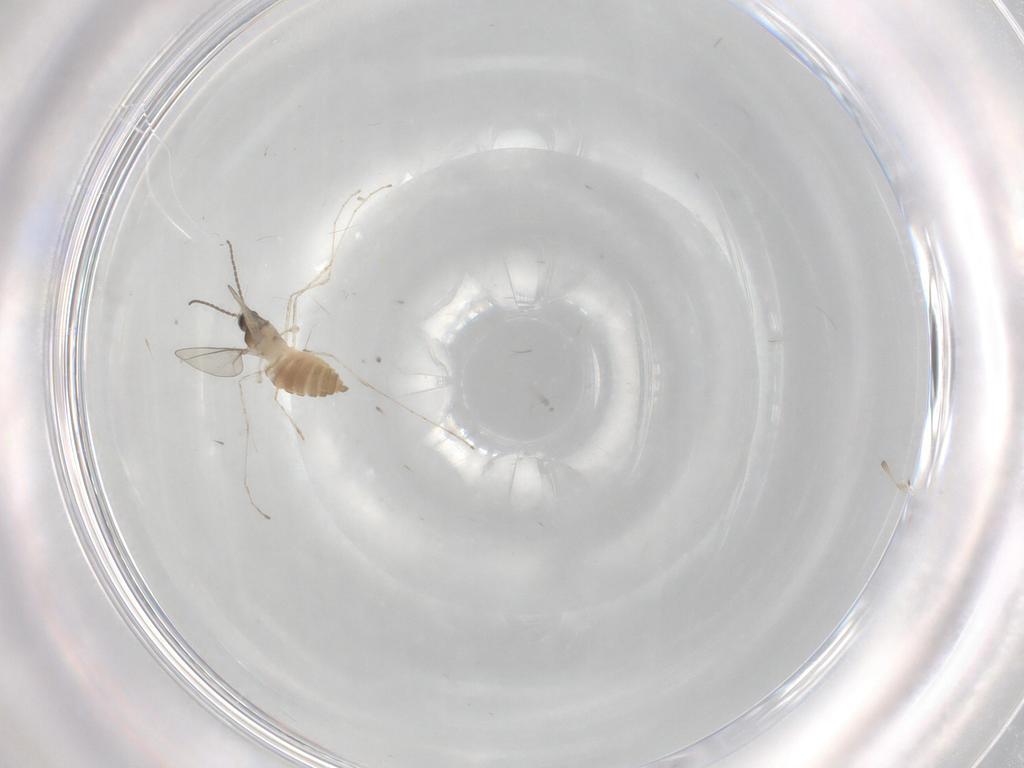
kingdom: Animalia
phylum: Arthropoda
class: Insecta
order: Diptera
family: Cecidomyiidae
